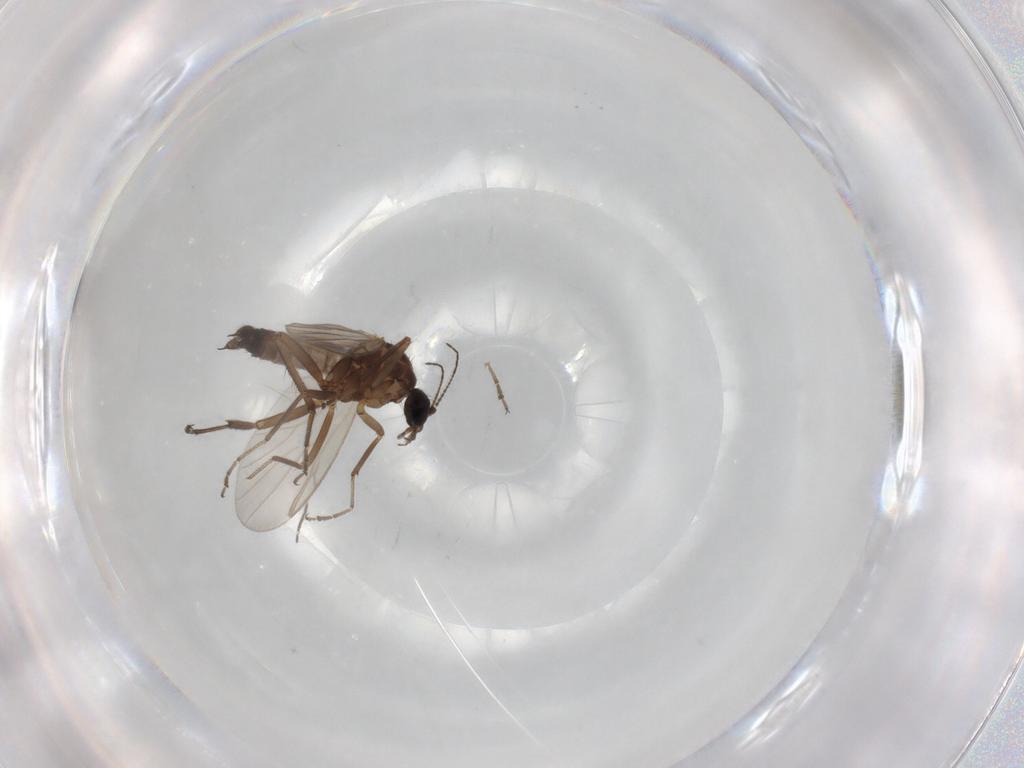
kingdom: Animalia
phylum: Arthropoda
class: Insecta
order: Diptera
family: Ceratopogonidae
